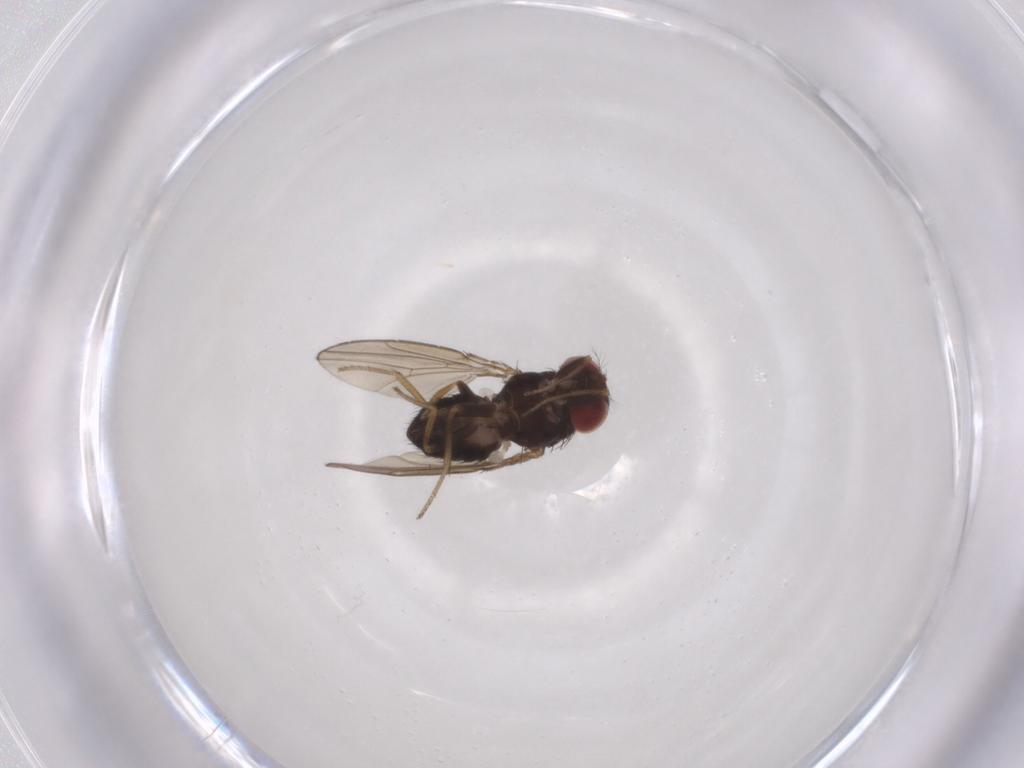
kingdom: Animalia
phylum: Arthropoda
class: Insecta
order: Diptera
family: Drosophilidae
